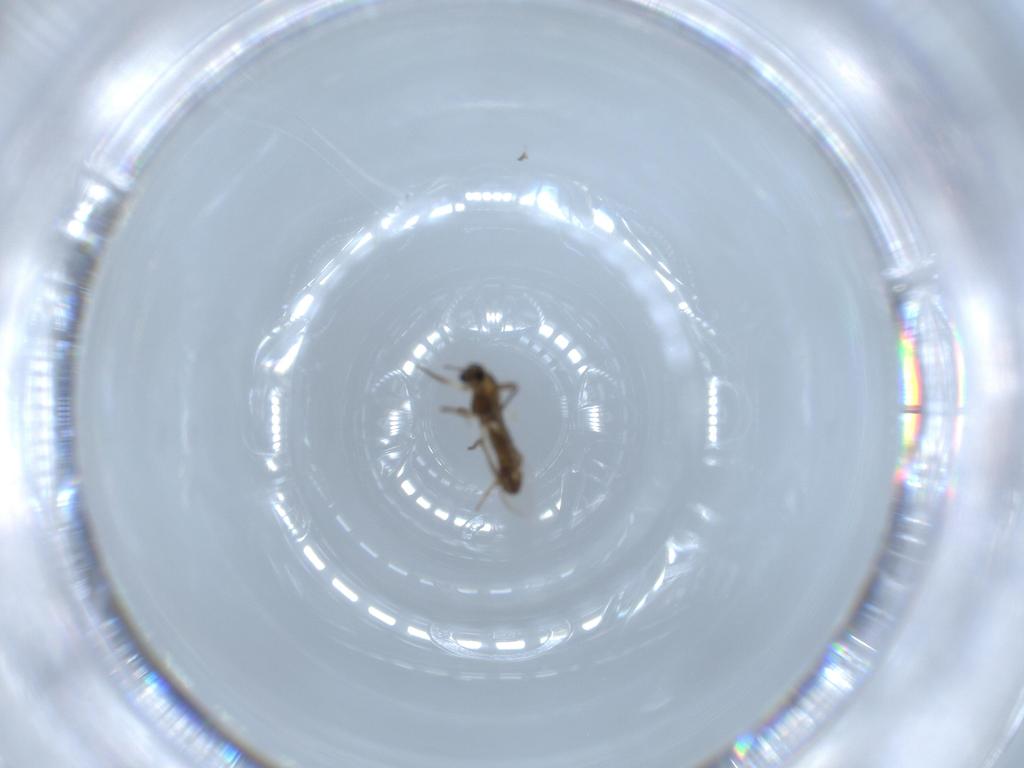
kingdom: Animalia
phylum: Arthropoda
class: Insecta
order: Diptera
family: Chironomidae
